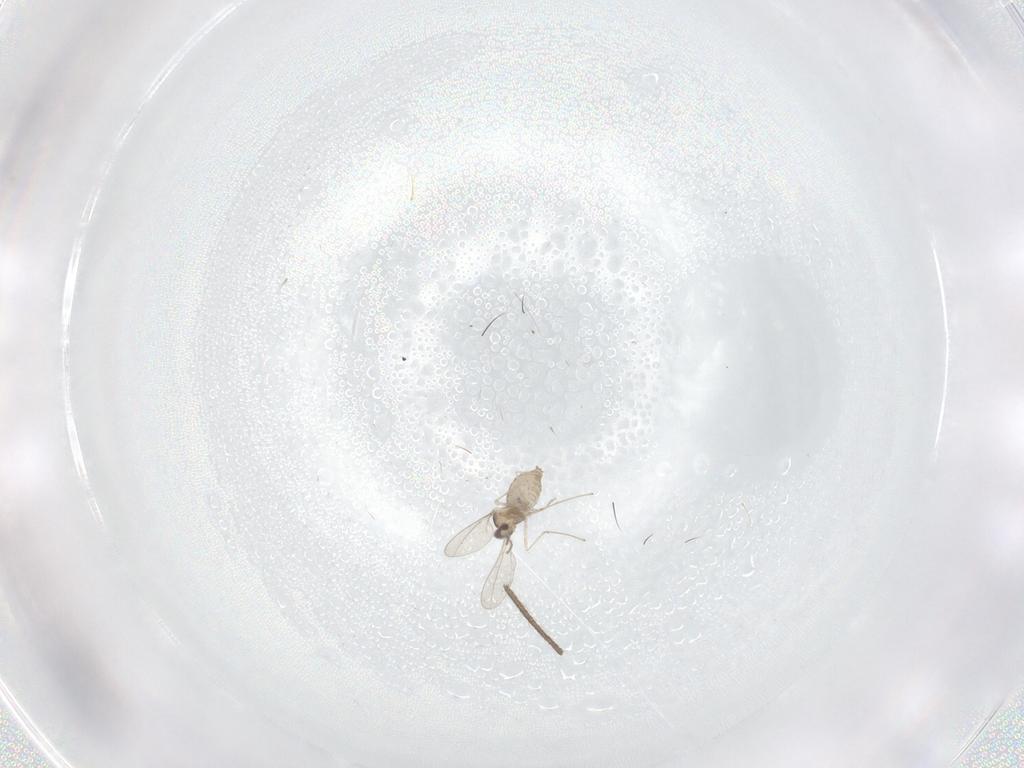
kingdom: Animalia
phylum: Arthropoda
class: Insecta
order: Diptera
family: Cecidomyiidae
